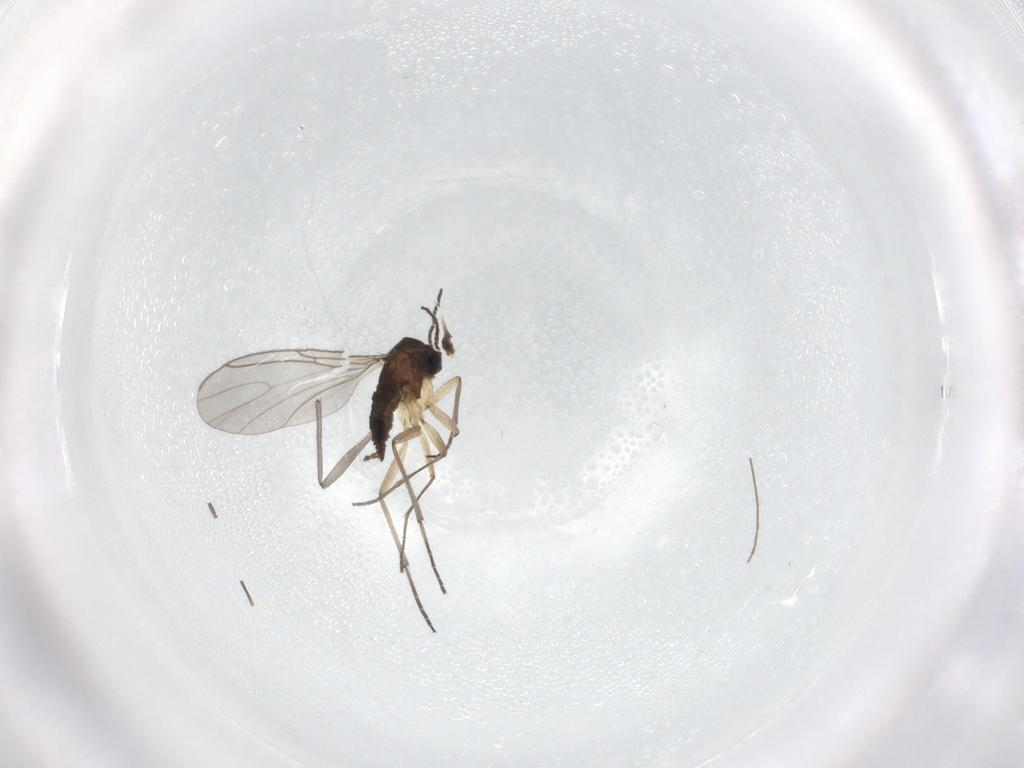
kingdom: Animalia
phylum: Arthropoda
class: Insecta
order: Diptera
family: Sciaridae
